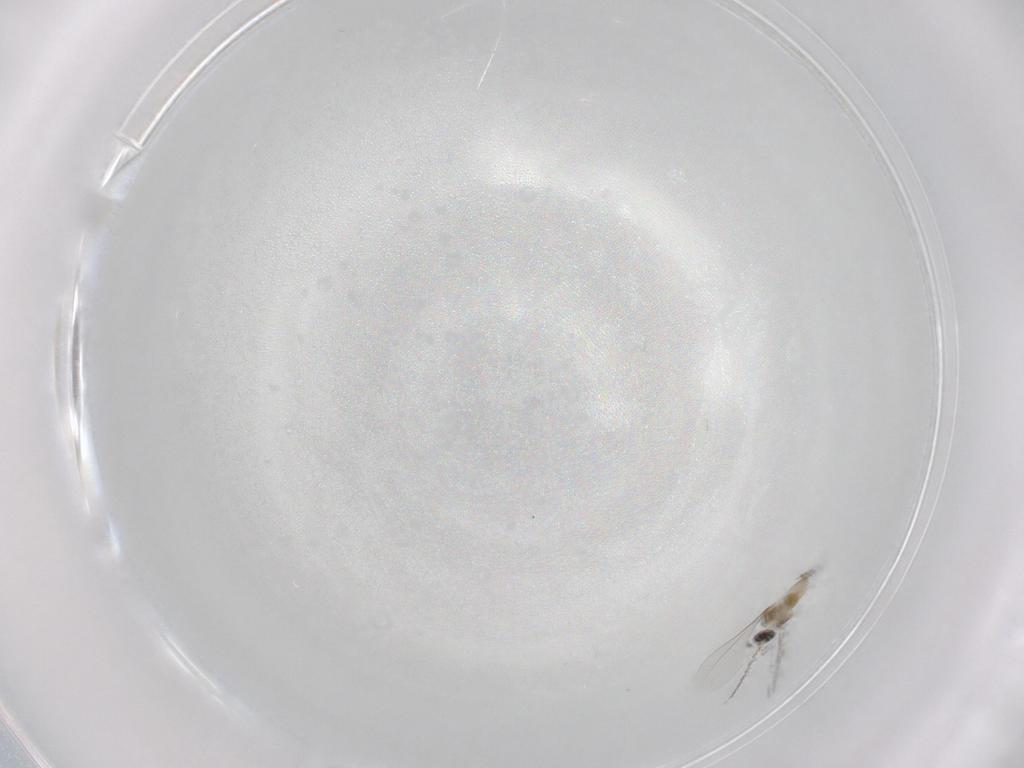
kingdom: Animalia
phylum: Arthropoda
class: Insecta
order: Diptera
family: Cecidomyiidae
